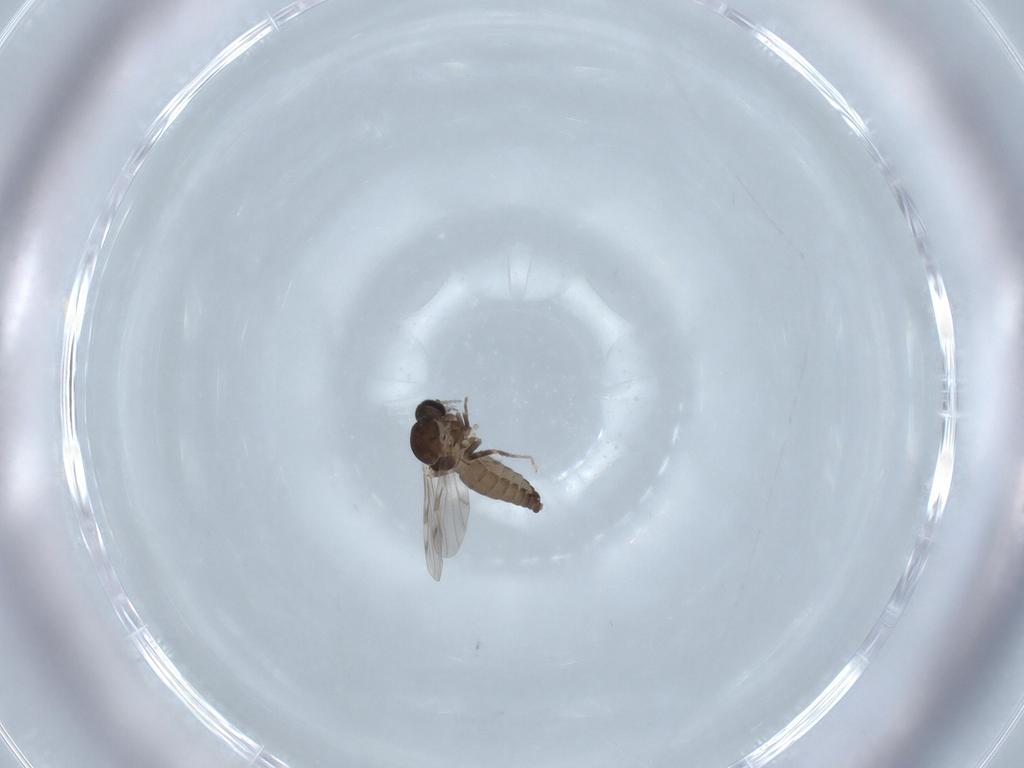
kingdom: Animalia
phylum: Arthropoda
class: Insecta
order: Diptera
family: Ceratopogonidae
